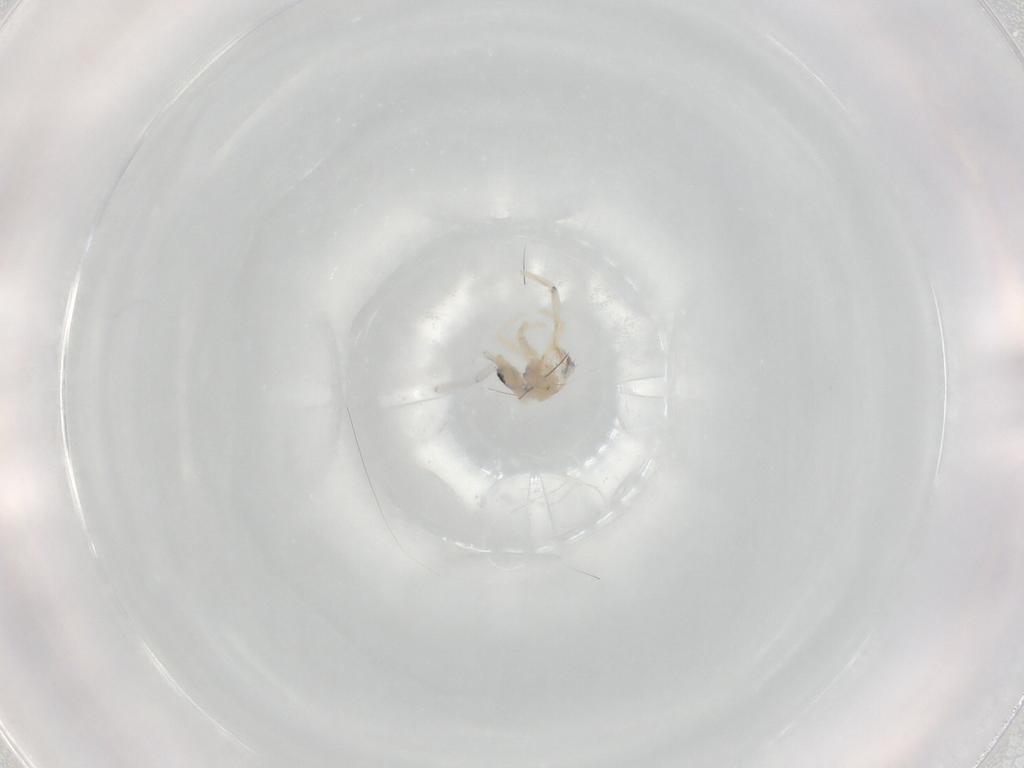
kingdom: Animalia
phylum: Arthropoda
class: Collembola
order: Entomobryomorpha
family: Entomobryidae
